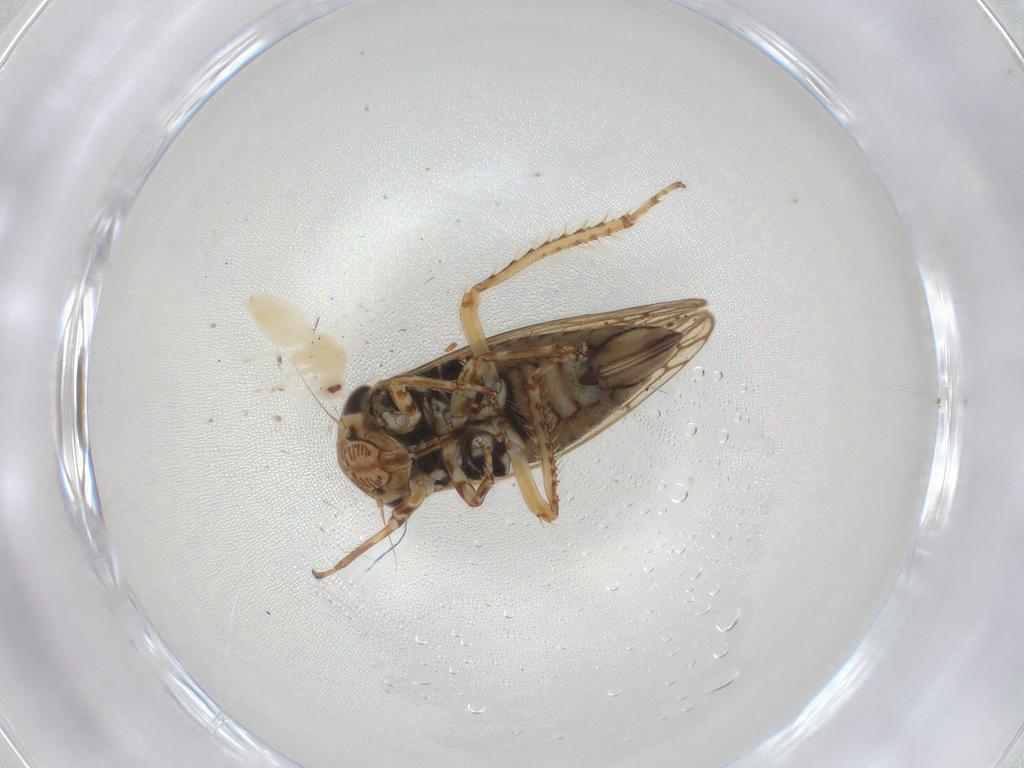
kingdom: Animalia
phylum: Arthropoda
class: Insecta
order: Hemiptera
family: Aleyrodidae
